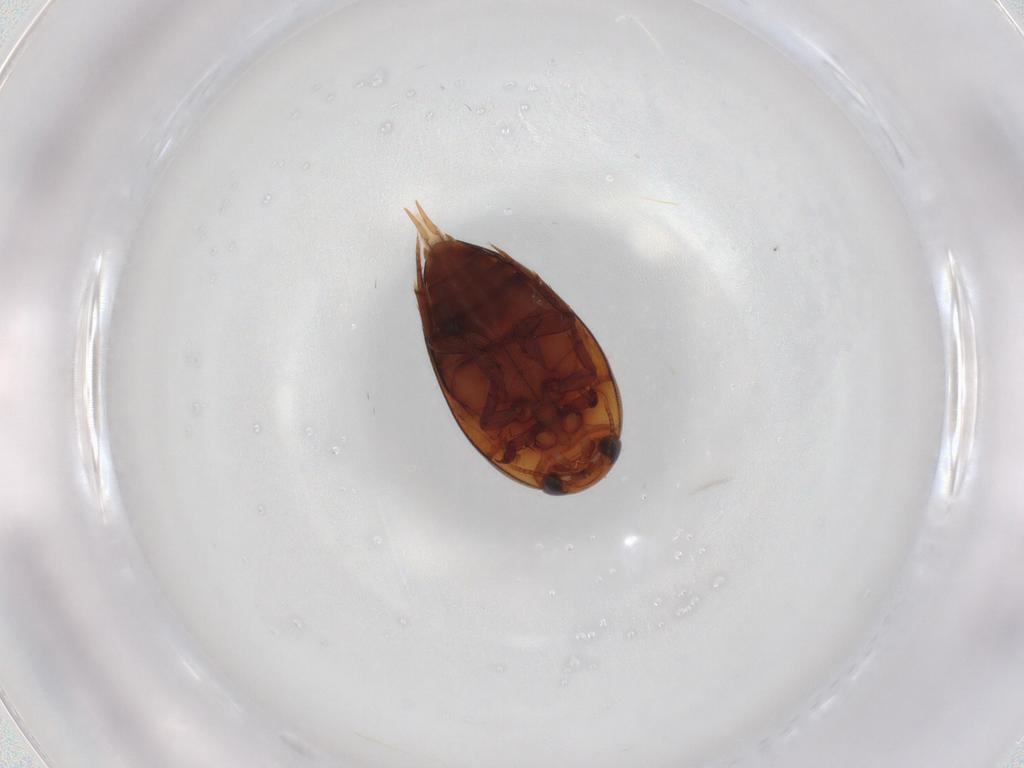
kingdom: Animalia
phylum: Arthropoda
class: Insecta
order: Coleoptera
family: Noteridae
